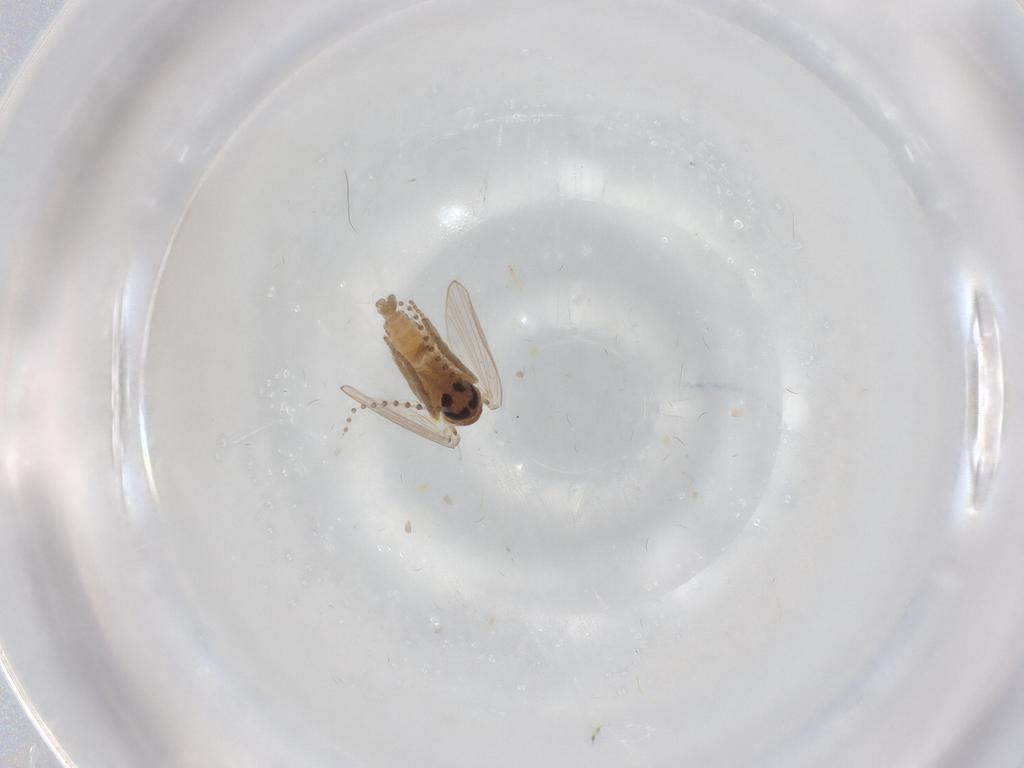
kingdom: Animalia
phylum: Arthropoda
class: Insecta
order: Diptera
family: Psychodidae
